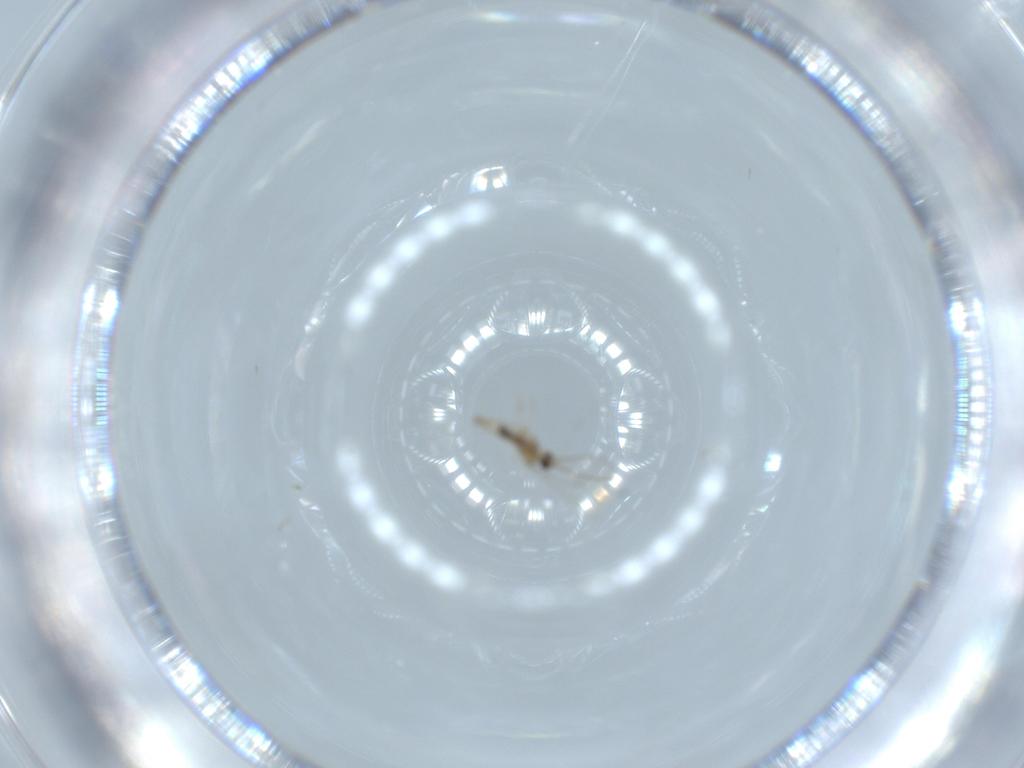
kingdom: Animalia
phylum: Arthropoda
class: Insecta
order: Diptera
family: Cecidomyiidae
